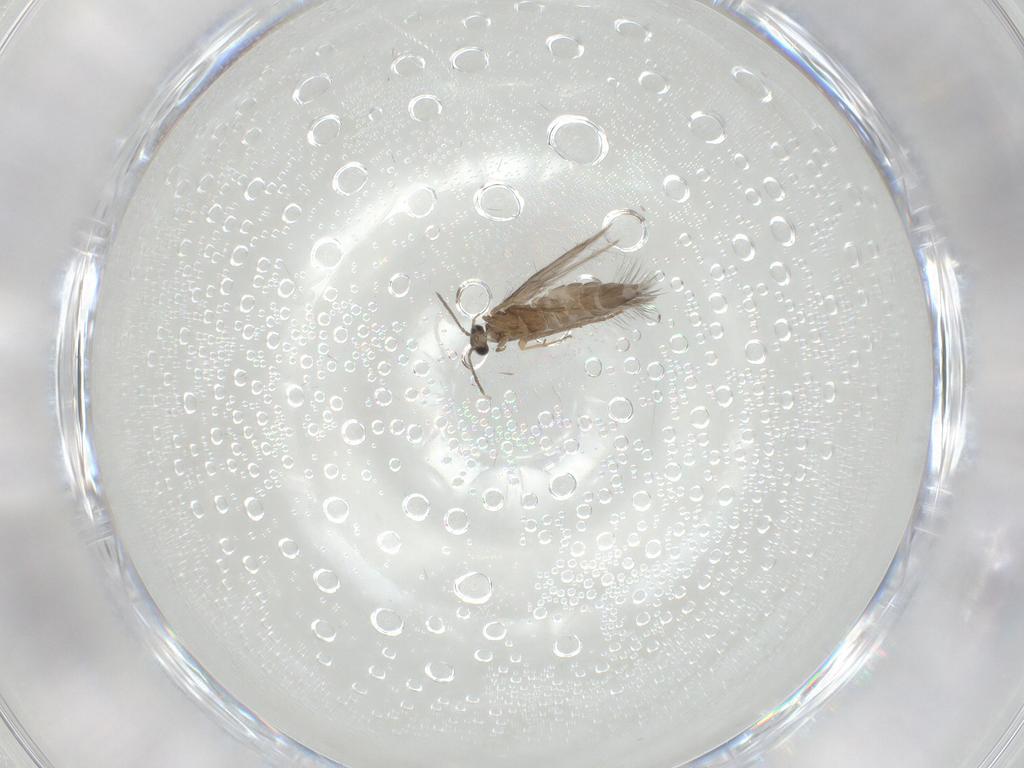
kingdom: Animalia
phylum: Arthropoda
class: Insecta
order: Trichoptera
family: Hydroptilidae
